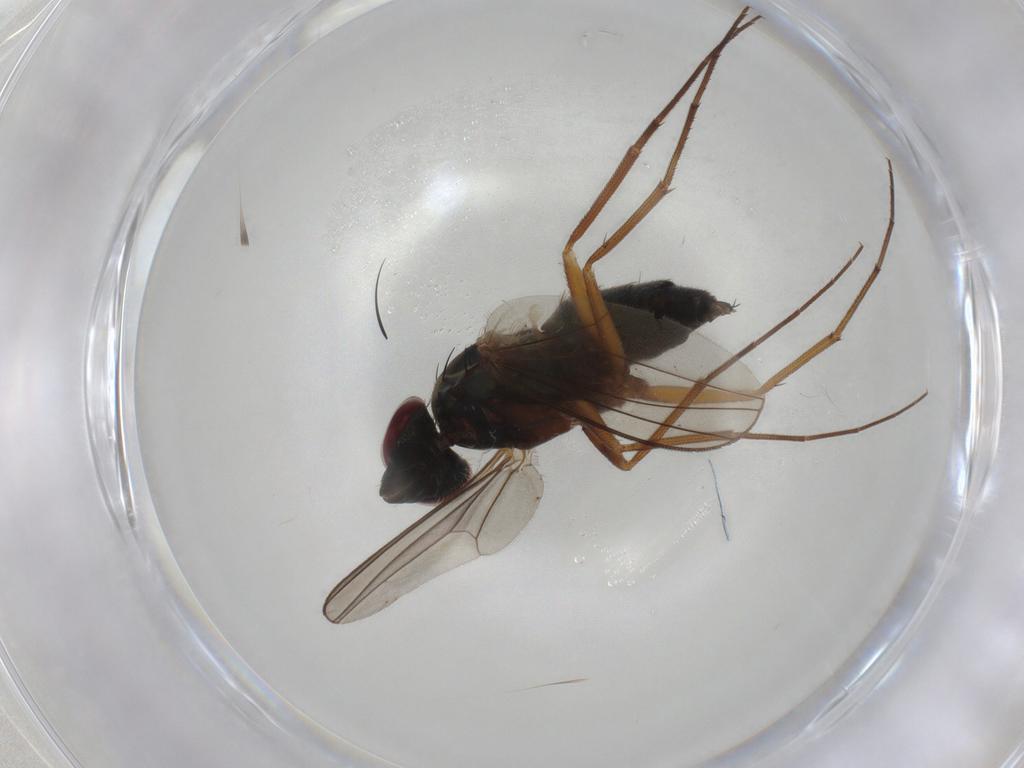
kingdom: Animalia
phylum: Arthropoda
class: Insecta
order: Diptera
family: Dolichopodidae
